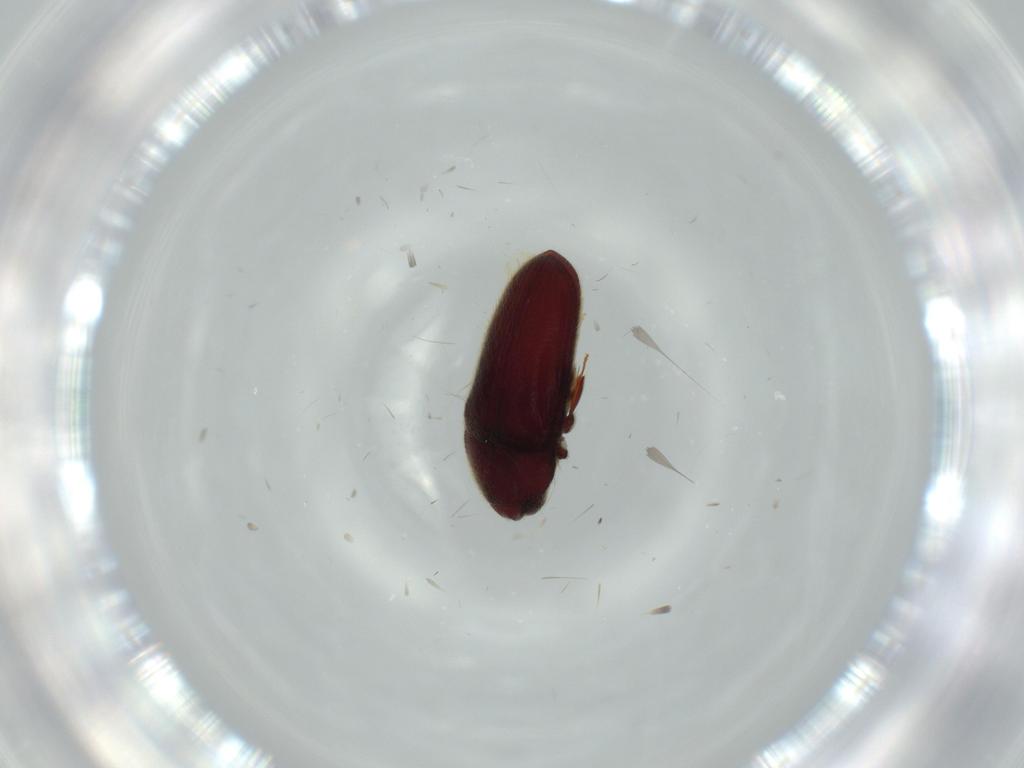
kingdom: Animalia
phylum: Arthropoda
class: Insecta
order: Coleoptera
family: Throscidae
